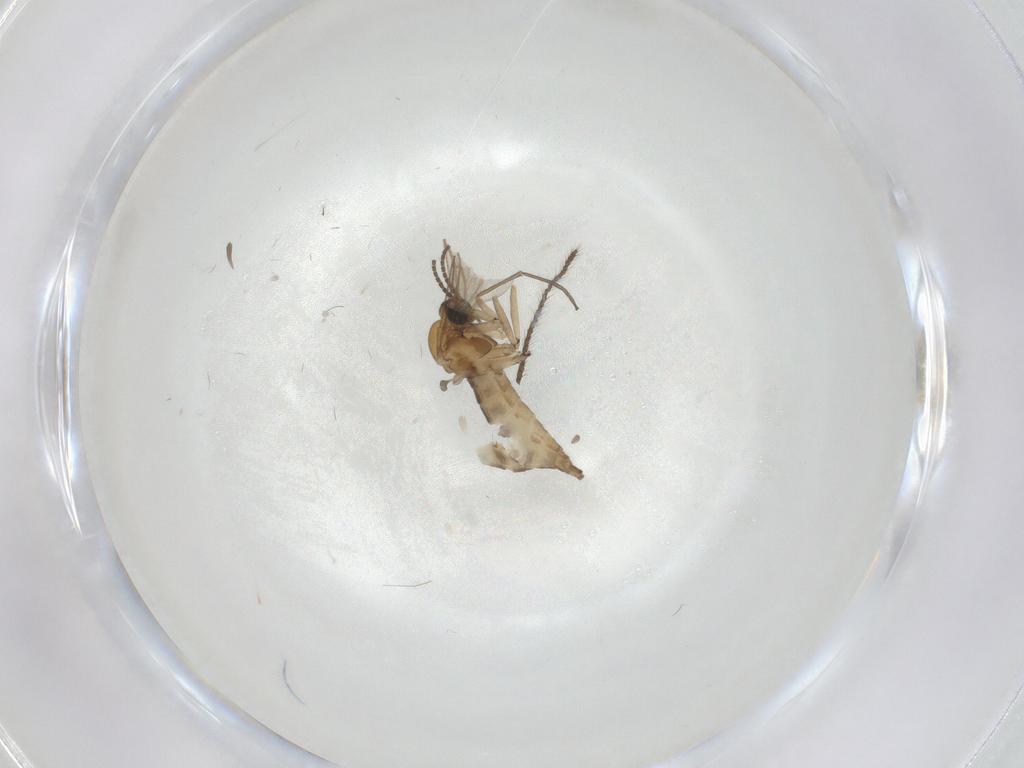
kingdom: Animalia
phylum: Arthropoda
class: Insecta
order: Diptera
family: Sciaridae
